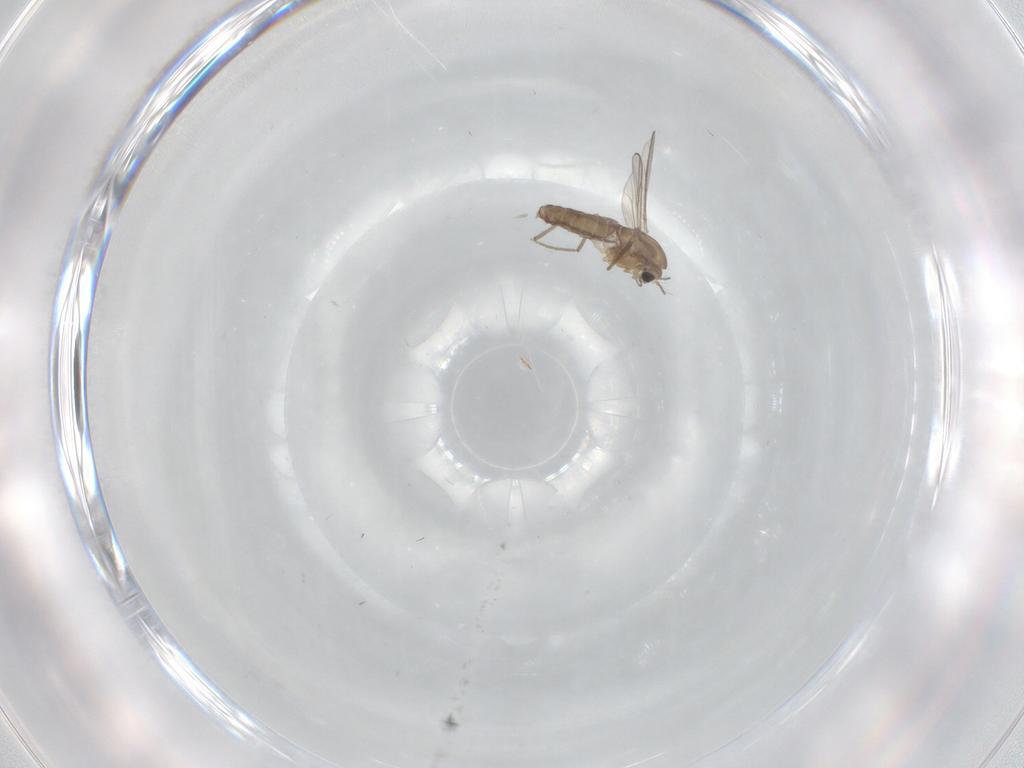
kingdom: Animalia
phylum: Arthropoda
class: Insecta
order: Diptera
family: Chironomidae
